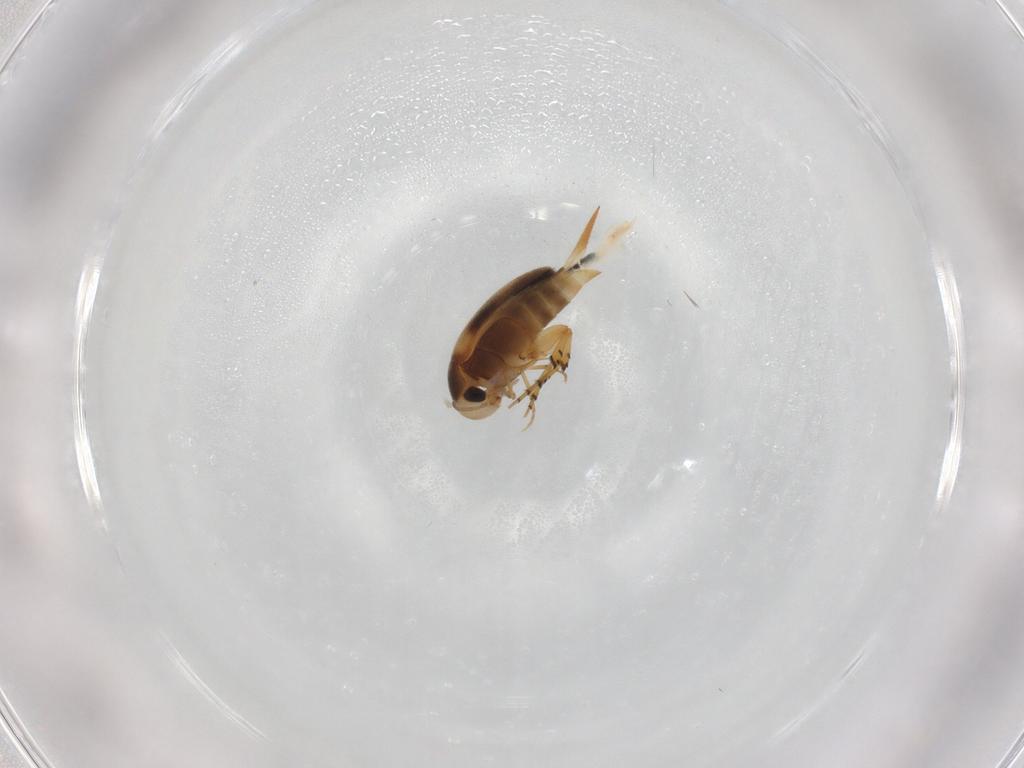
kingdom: Animalia
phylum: Arthropoda
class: Insecta
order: Coleoptera
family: Mordellidae
